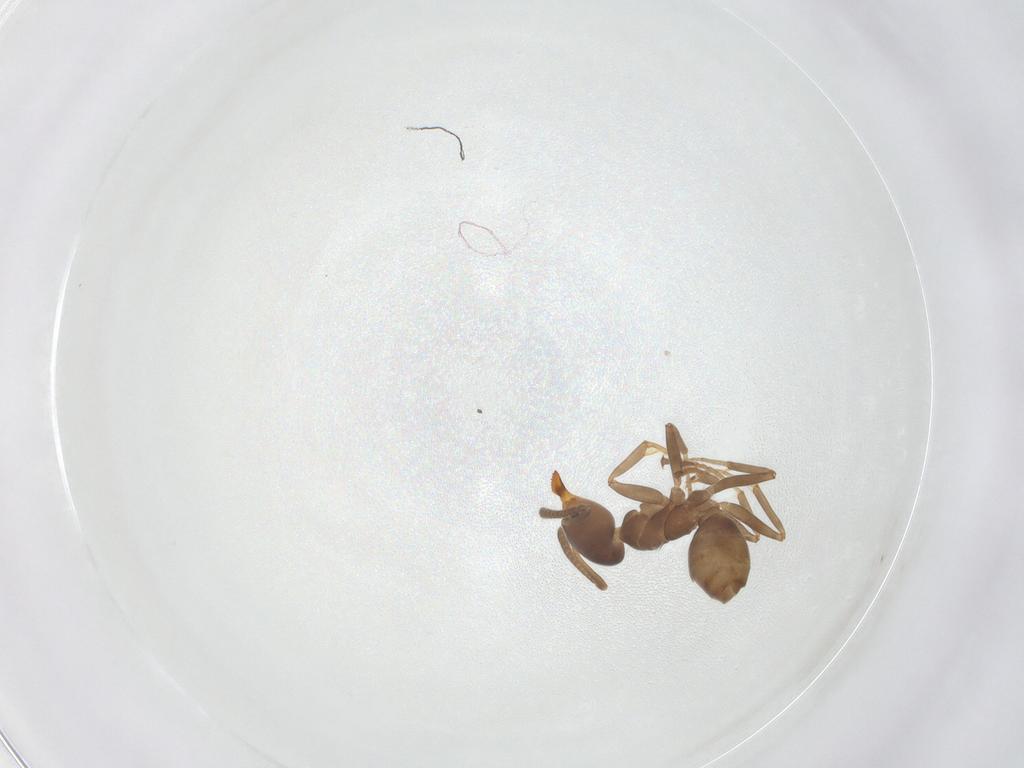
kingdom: Animalia
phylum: Arthropoda
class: Insecta
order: Hymenoptera
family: Formicidae
